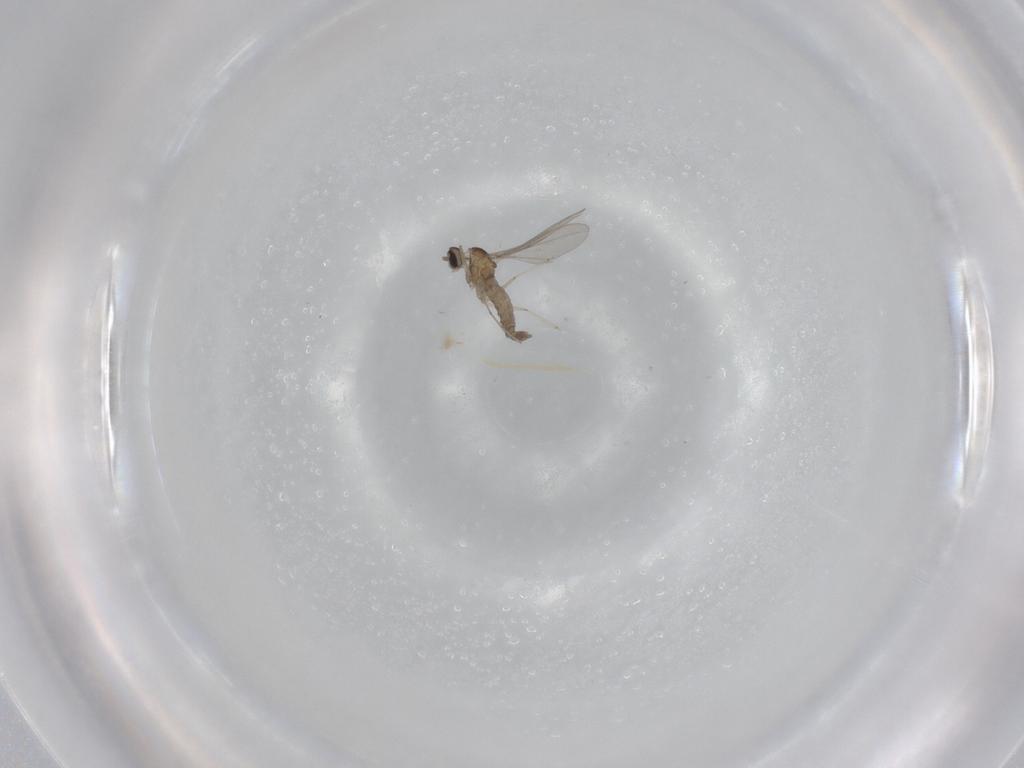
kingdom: Animalia
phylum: Arthropoda
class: Insecta
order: Diptera
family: Cecidomyiidae
